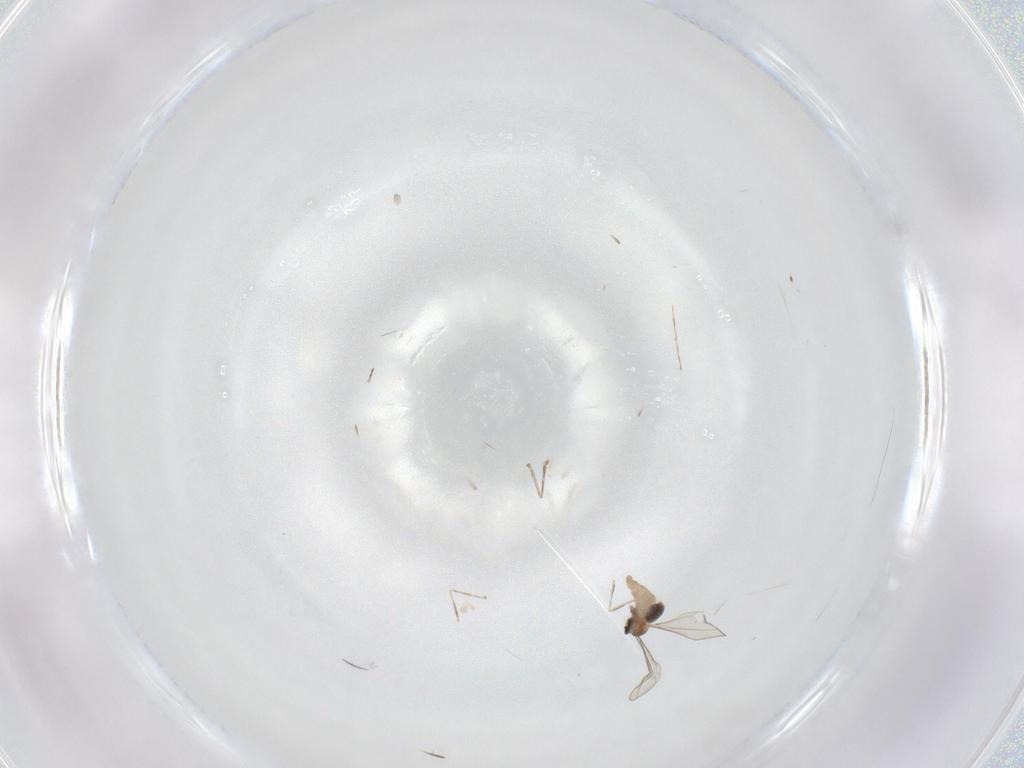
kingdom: Animalia
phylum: Arthropoda
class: Insecta
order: Diptera
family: Cecidomyiidae
